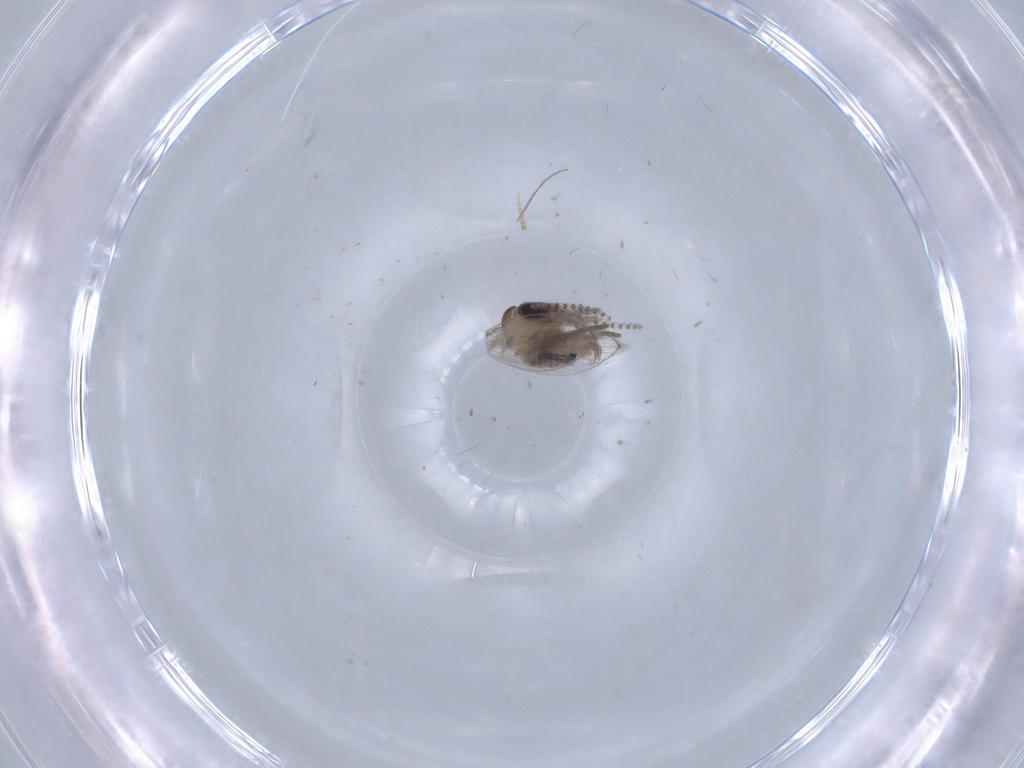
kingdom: Animalia
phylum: Arthropoda
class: Insecta
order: Diptera
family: Psychodidae
